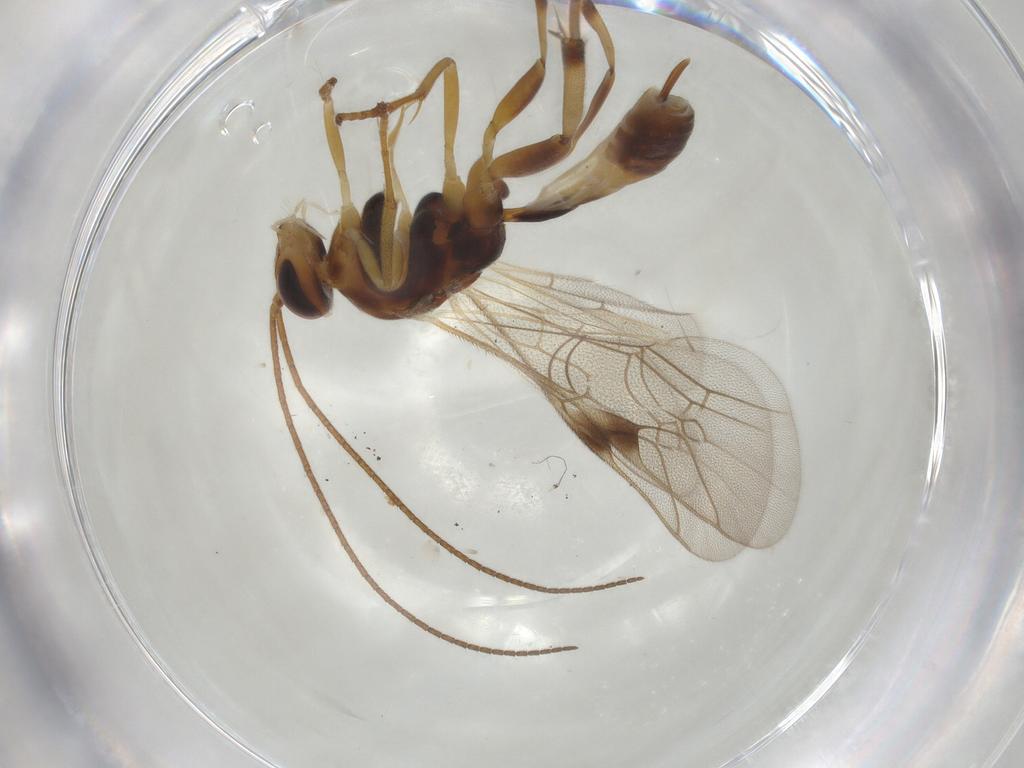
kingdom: Animalia
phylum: Arthropoda
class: Insecta
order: Hymenoptera
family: Ichneumonidae
